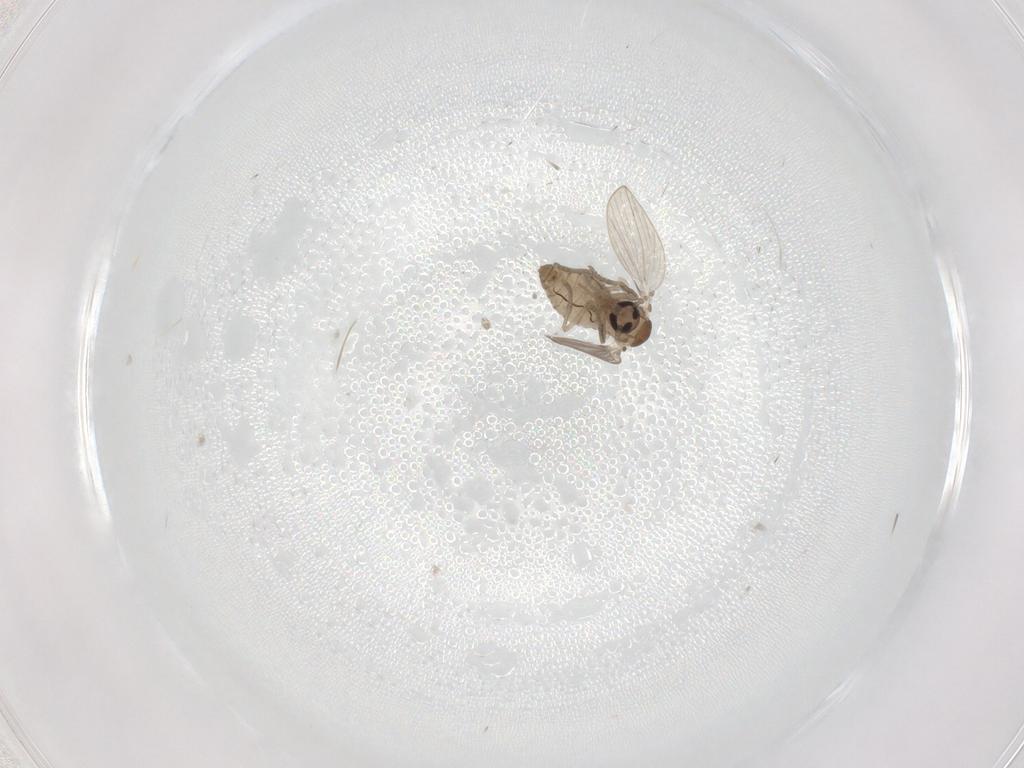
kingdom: Animalia
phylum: Arthropoda
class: Insecta
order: Diptera
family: Psychodidae
